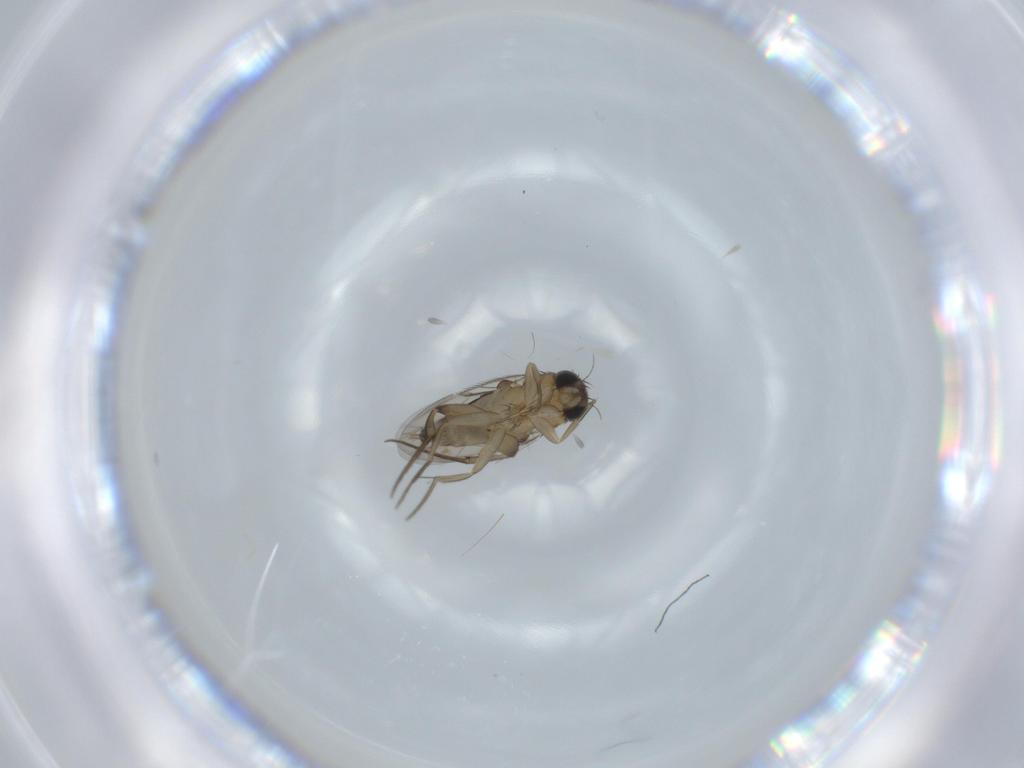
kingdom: Animalia
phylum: Arthropoda
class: Insecta
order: Diptera
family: Phoridae
